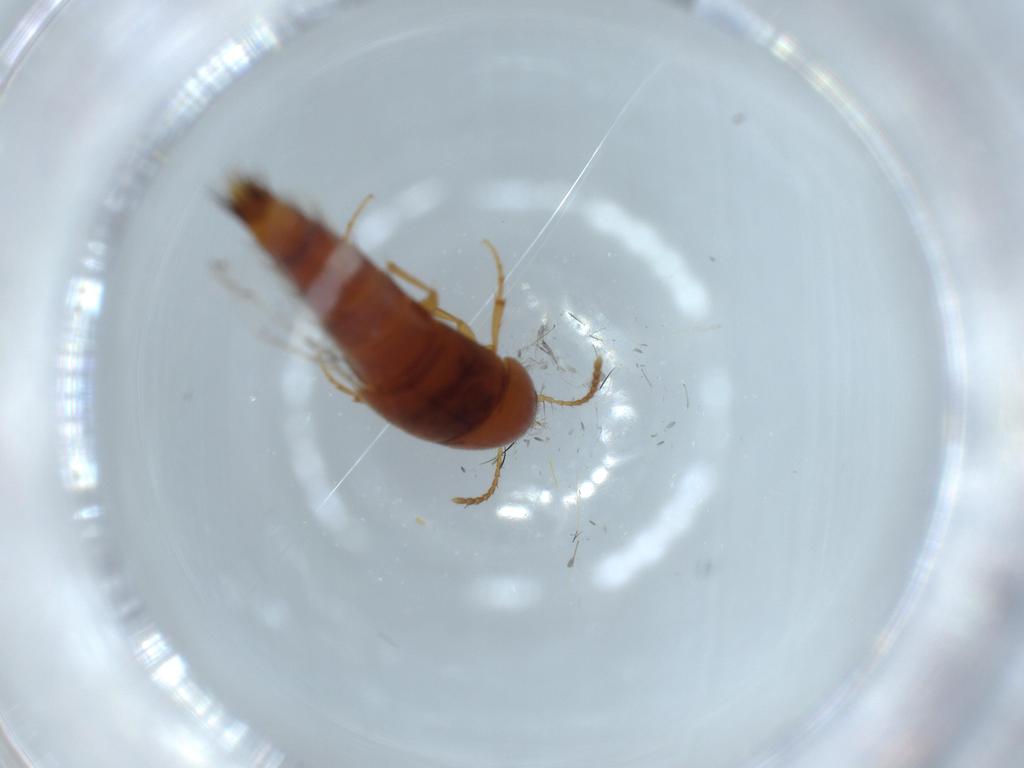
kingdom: Animalia
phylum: Arthropoda
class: Insecta
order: Coleoptera
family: Staphylinidae
